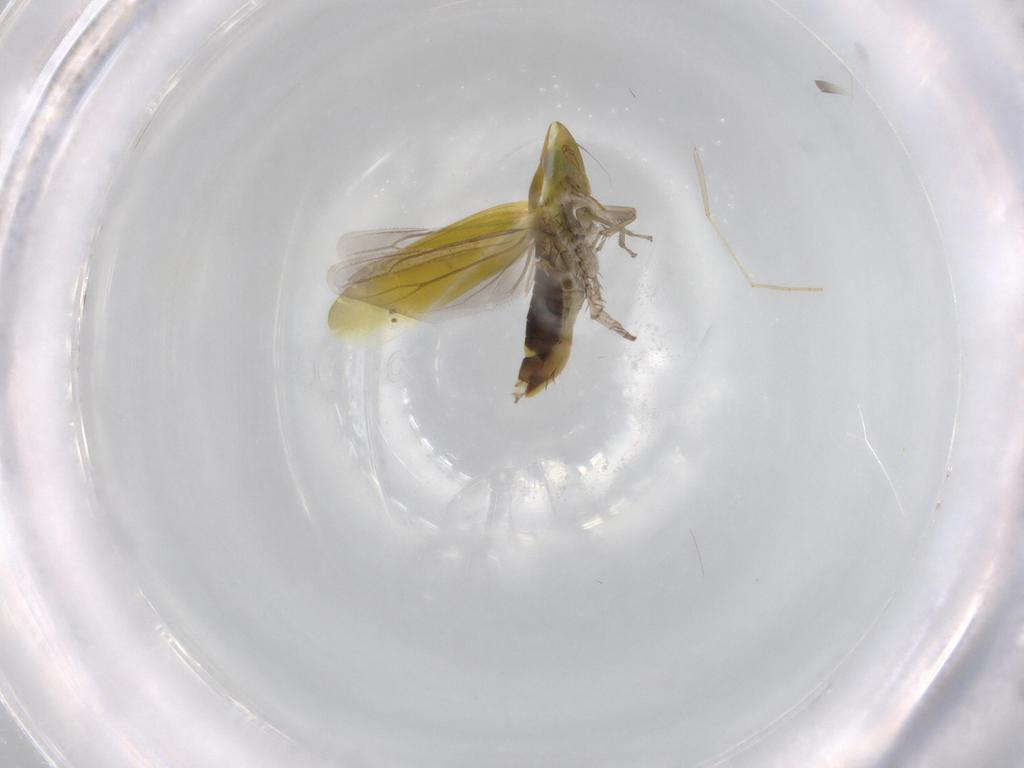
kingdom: Animalia
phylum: Arthropoda
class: Insecta
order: Hemiptera
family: Cicadellidae
